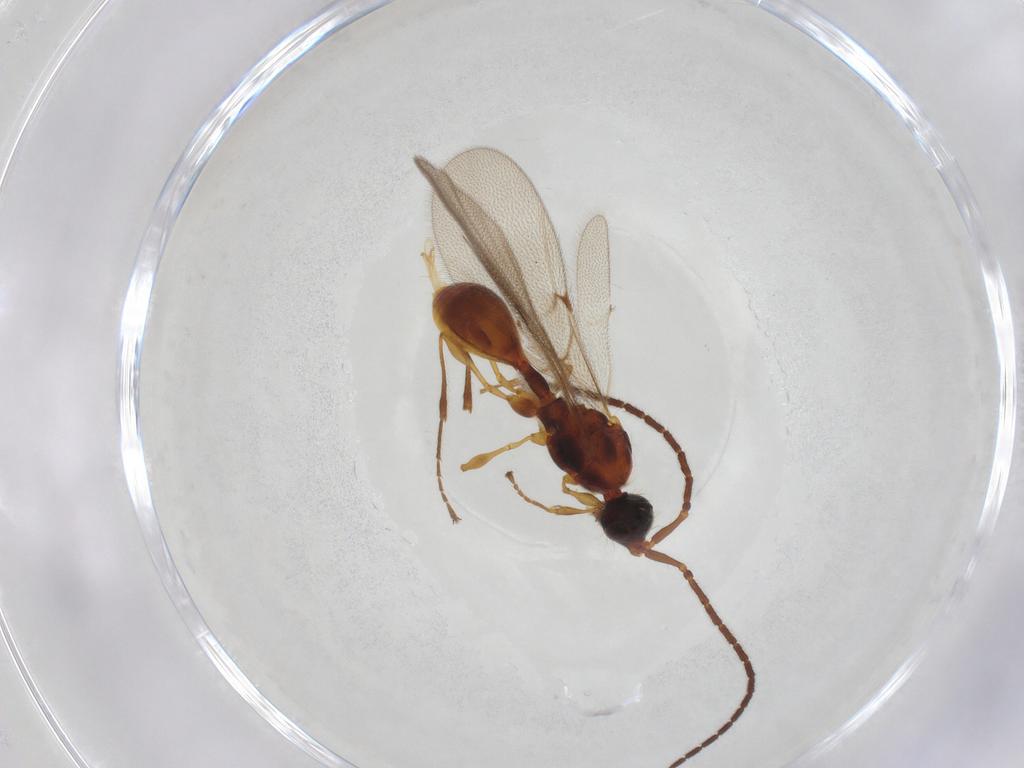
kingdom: Animalia
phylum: Arthropoda
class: Insecta
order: Hymenoptera
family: Diapriidae
